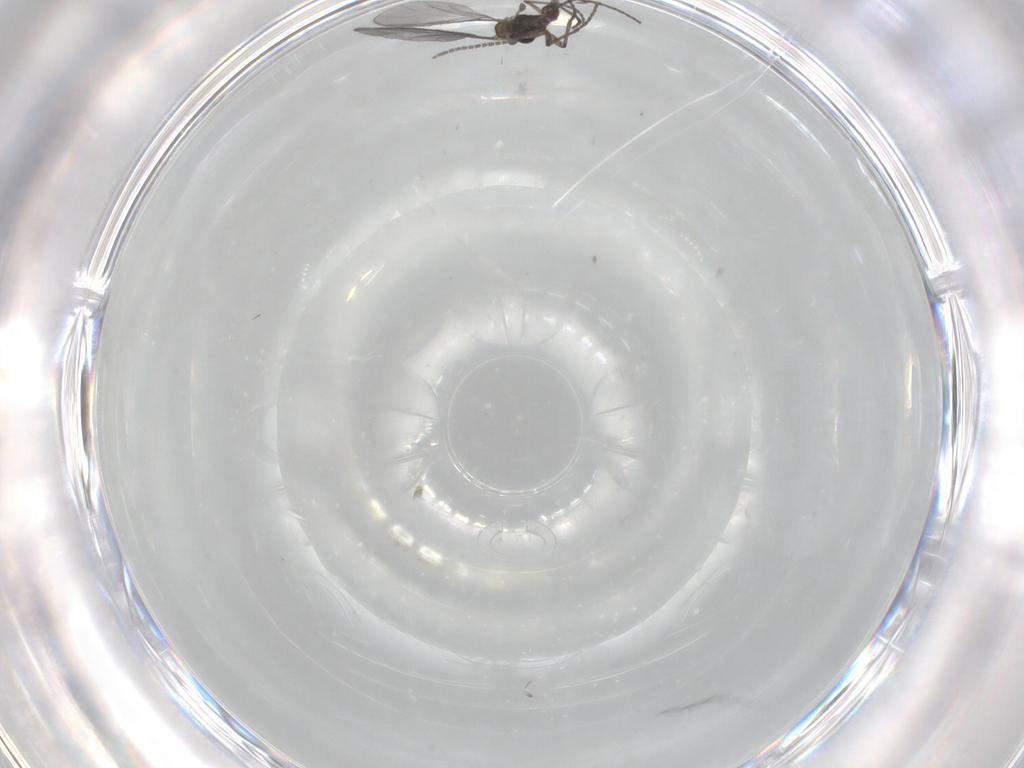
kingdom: Animalia
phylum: Arthropoda
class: Insecta
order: Diptera
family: Sciaridae
